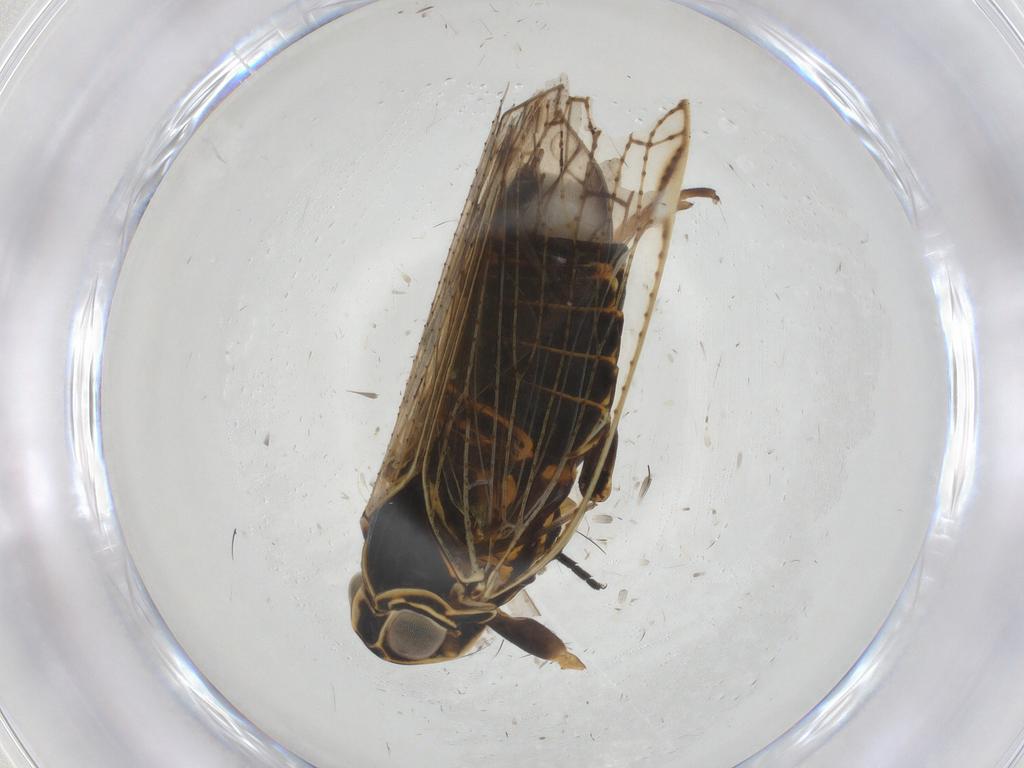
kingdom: Animalia
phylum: Arthropoda
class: Insecta
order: Hemiptera
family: Cixiidae
